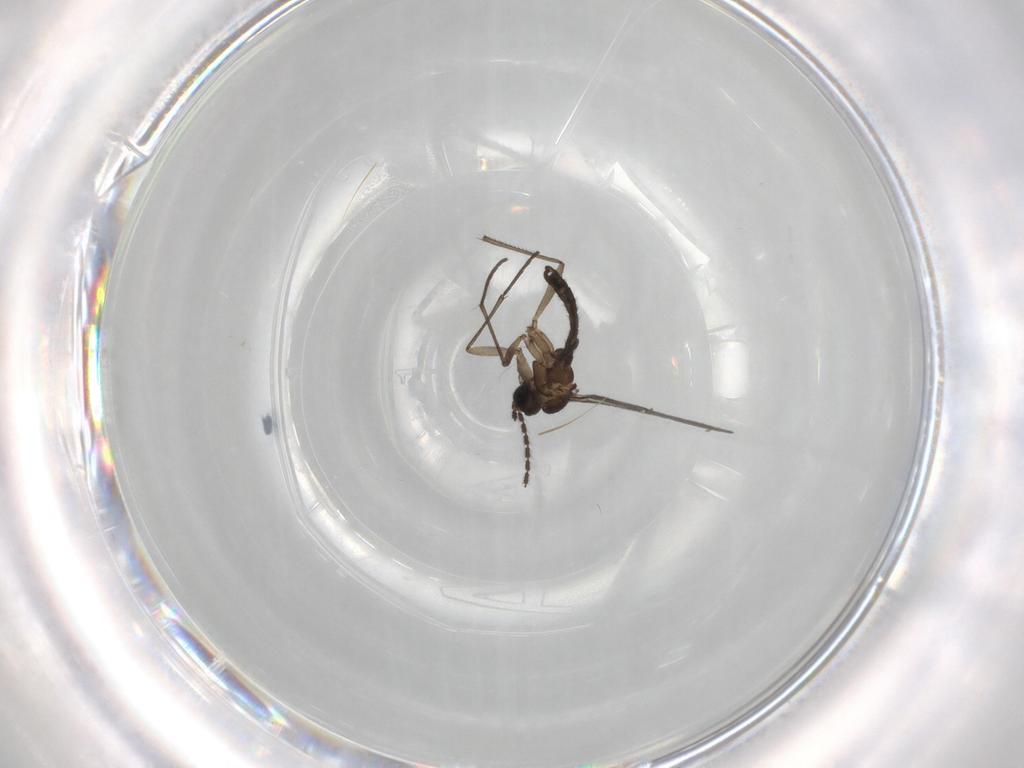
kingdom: Animalia
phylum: Arthropoda
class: Insecta
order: Diptera
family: Sciaridae
